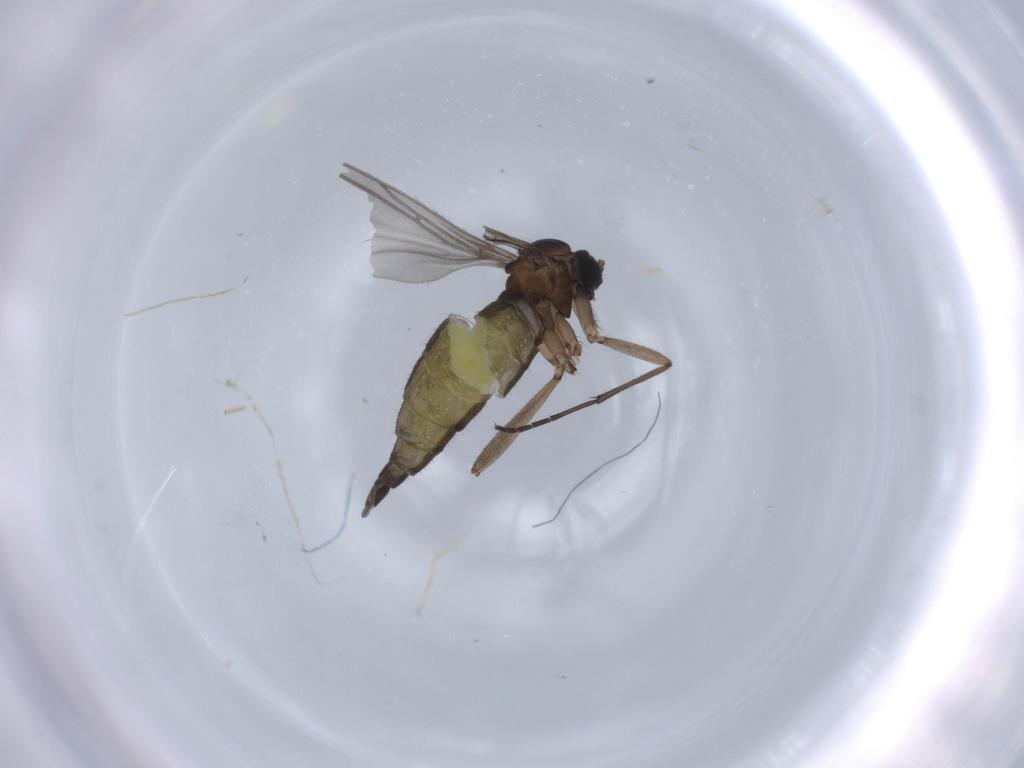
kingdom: Animalia
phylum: Arthropoda
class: Insecta
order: Diptera
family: Sciaridae
